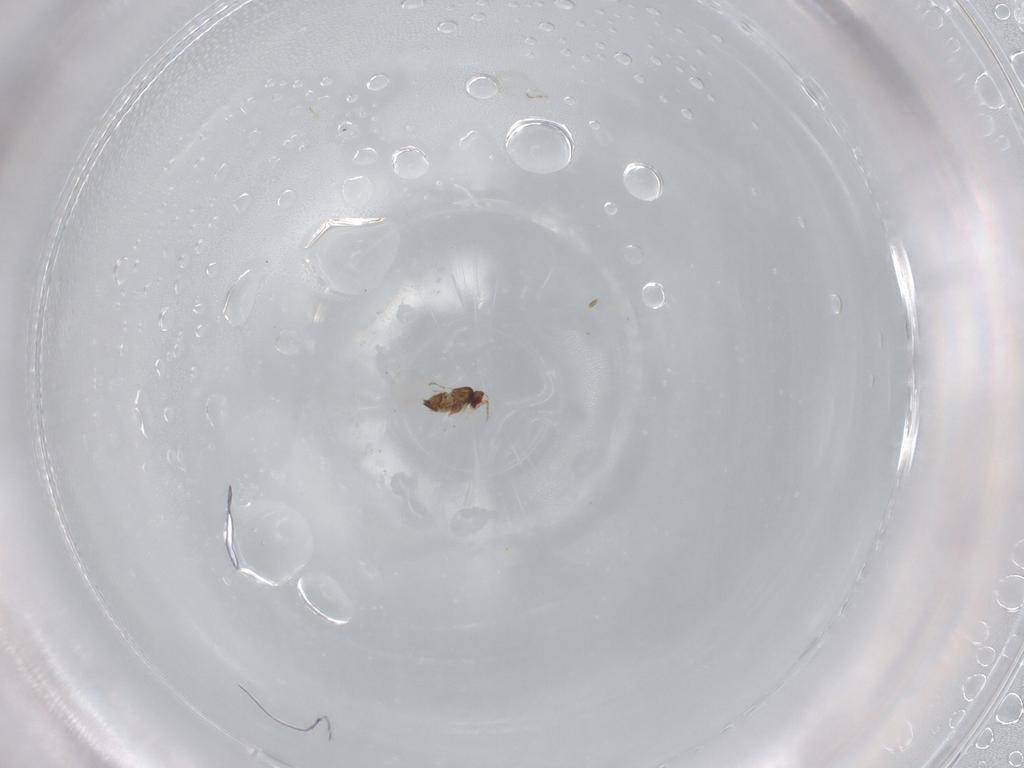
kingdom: Animalia
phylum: Arthropoda
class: Insecta
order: Hymenoptera
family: Trichogrammatidae
